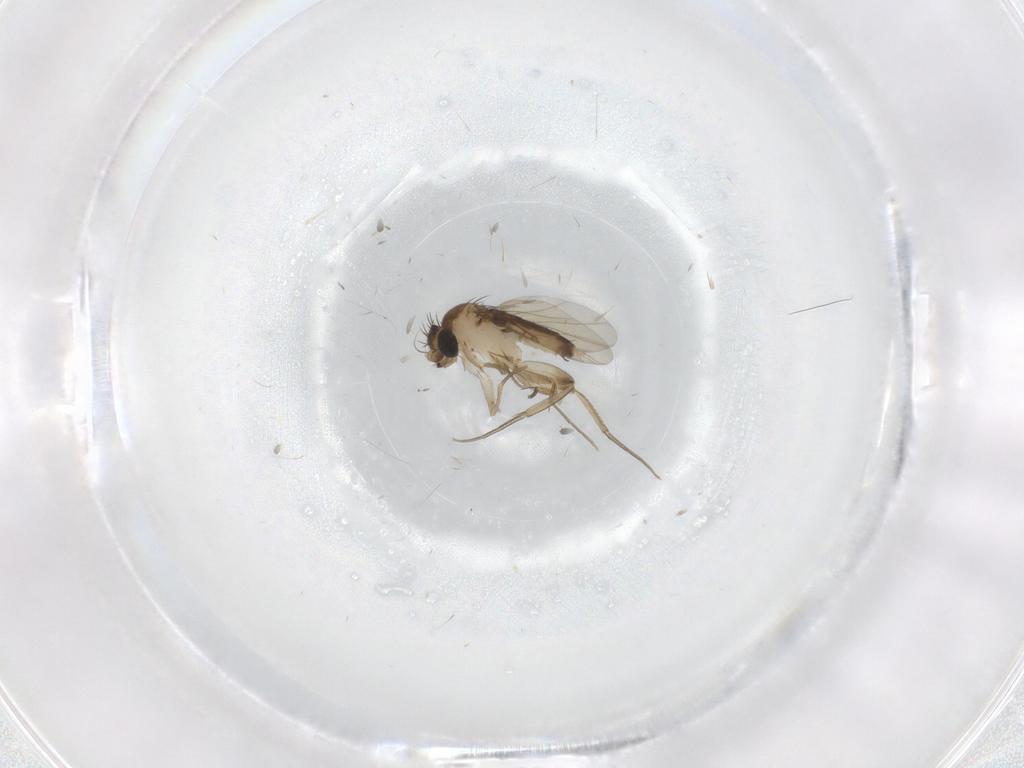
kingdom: Animalia
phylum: Arthropoda
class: Insecta
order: Diptera
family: Phoridae
